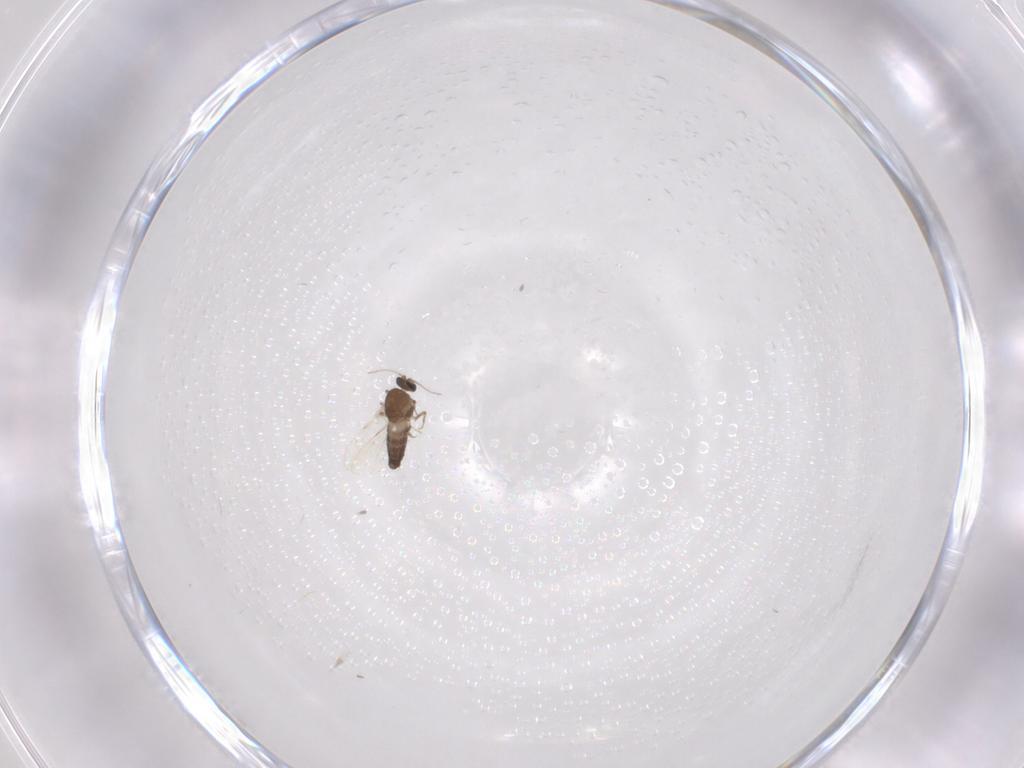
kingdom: Animalia
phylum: Arthropoda
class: Insecta
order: Diptera
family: Ceratopogonidae
